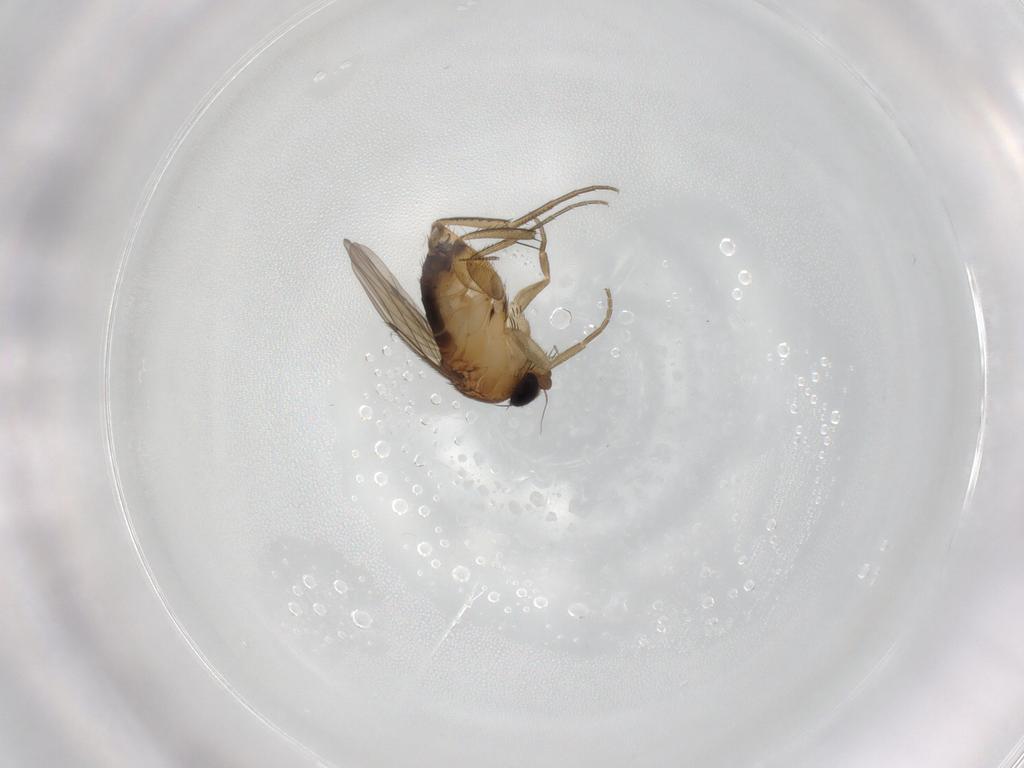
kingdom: Animalia
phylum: Arthropoda
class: Insecta
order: Diptera
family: Phoridae
